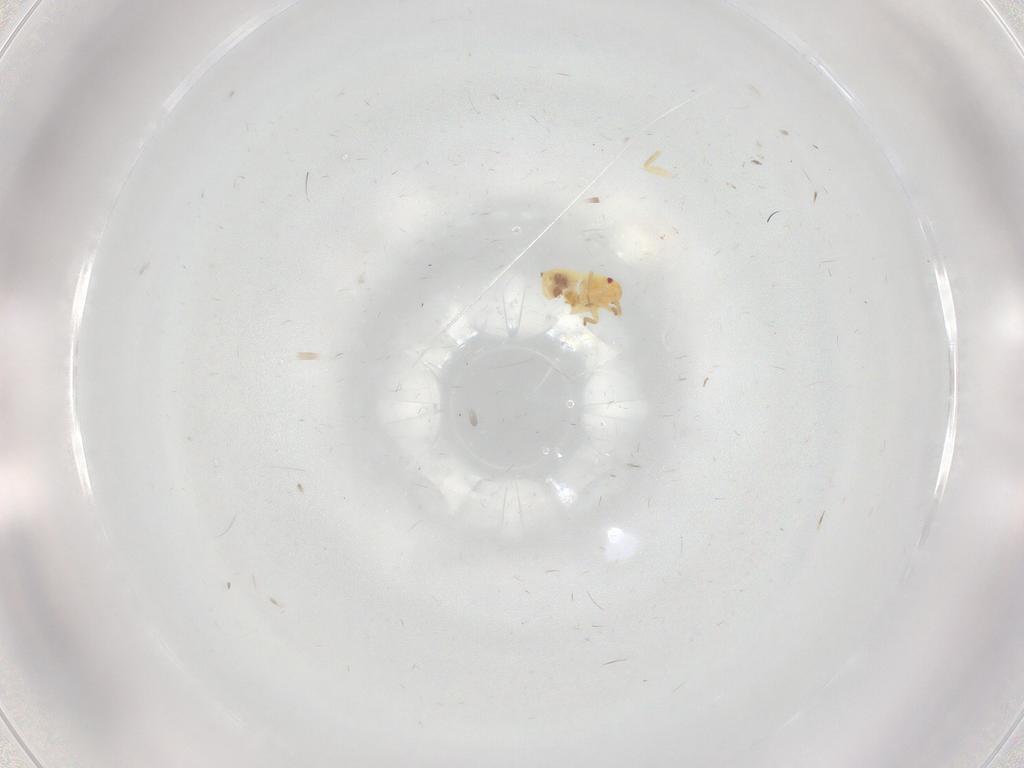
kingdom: Animalia
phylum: Arthropoda
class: Insecta
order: Hemiptera
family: Miridae
